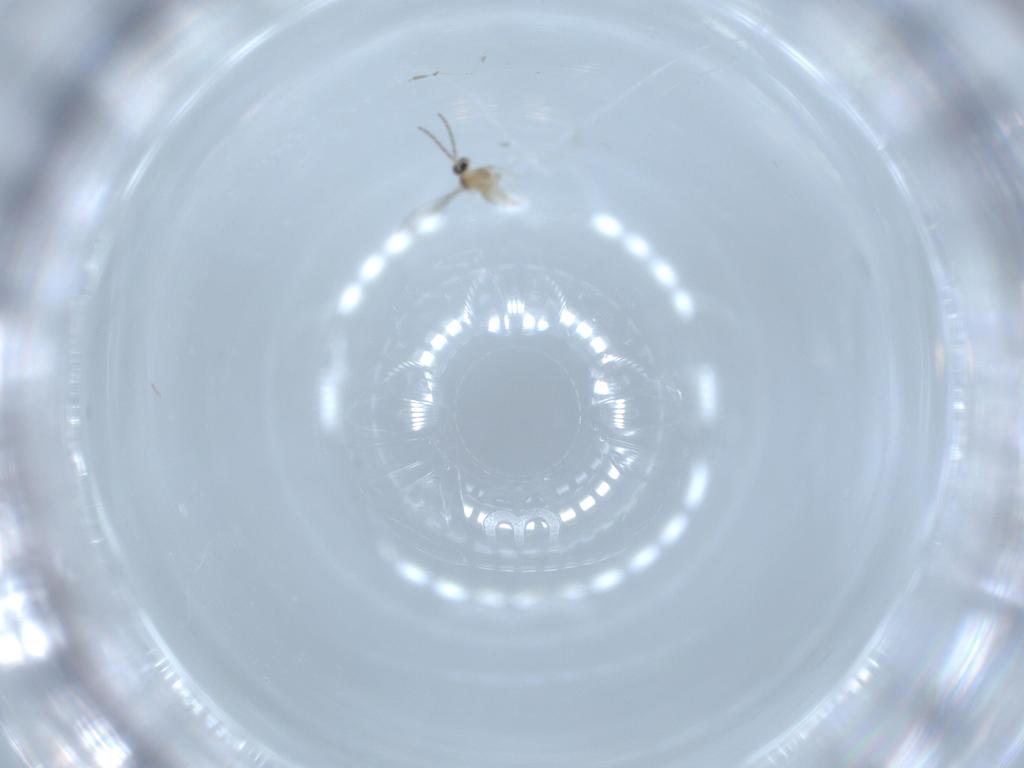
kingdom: Animalia
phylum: Arthropoda
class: Insecta
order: Diptera
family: Cecidomyiidae
